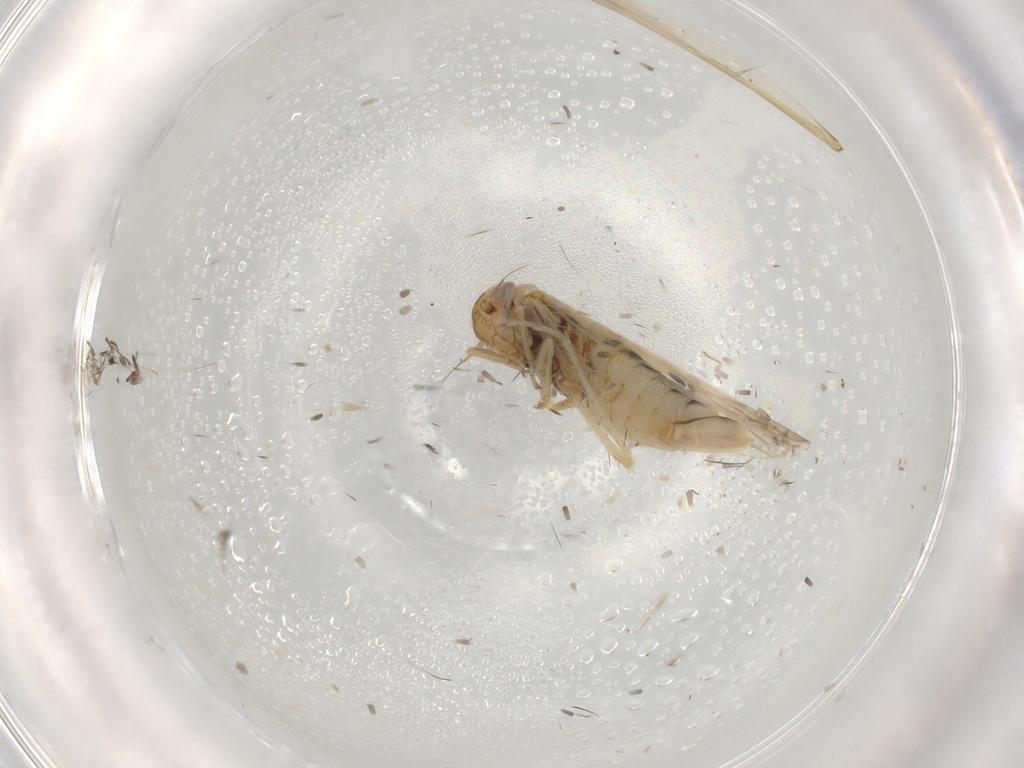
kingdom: Animalia
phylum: Arthropoda
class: Insecta
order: Hemiptera
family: Cicadellidae
